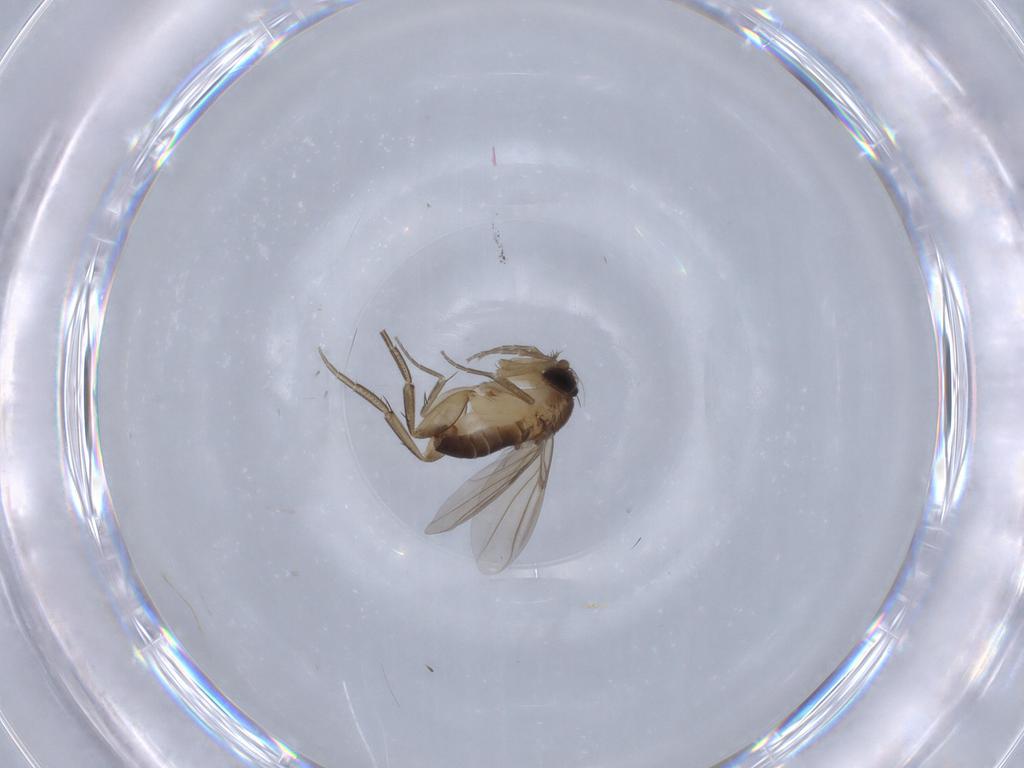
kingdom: Animalia
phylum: Arthropoda
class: Insecta
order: Diptera
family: Phoridae
